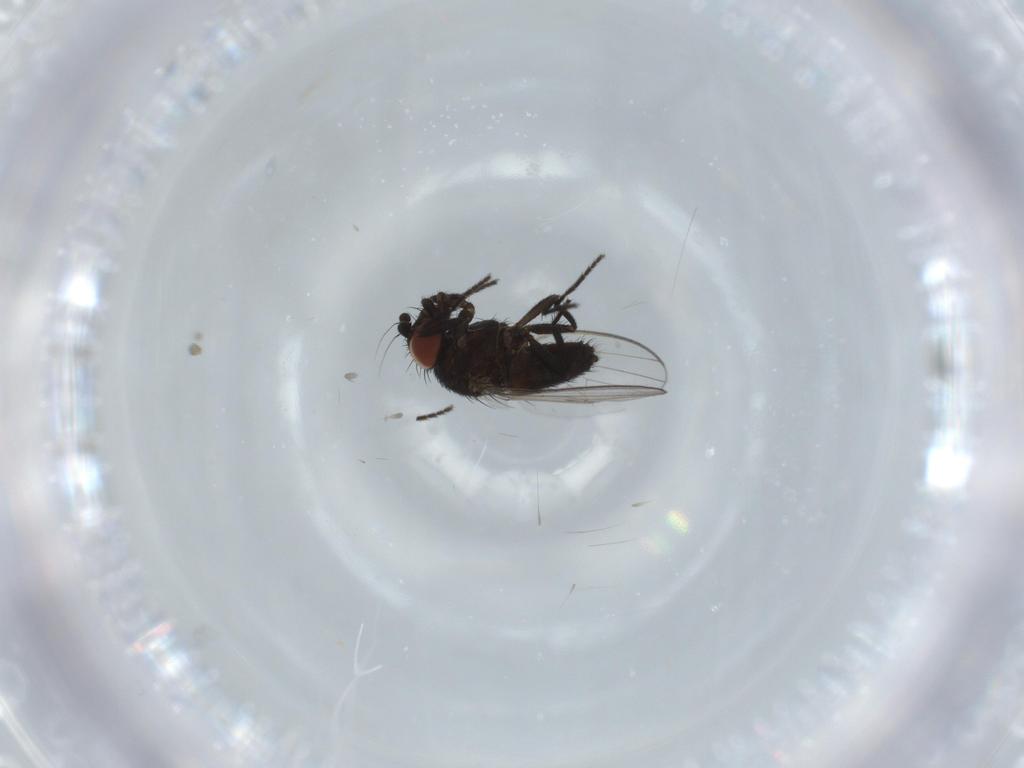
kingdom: Animalia
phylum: Arthropoda
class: Insecta
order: Diptera
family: Milichiidae
